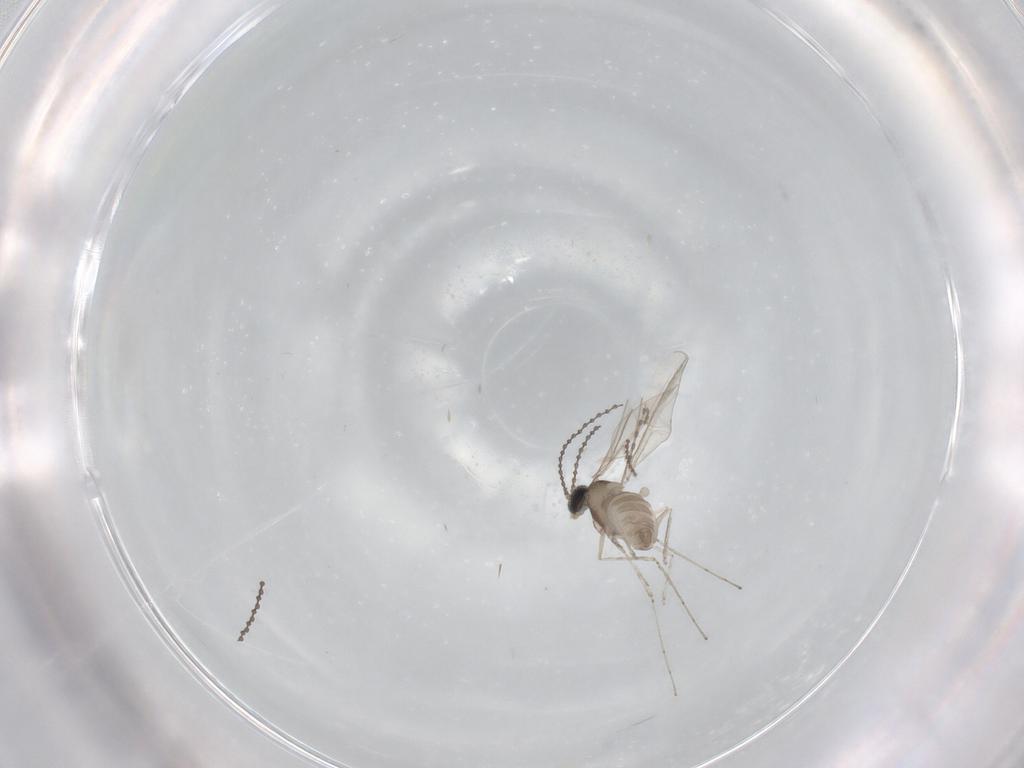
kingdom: Animalia
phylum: Arthropoda
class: Insecta
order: Diptera
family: Cecidomyiidae
